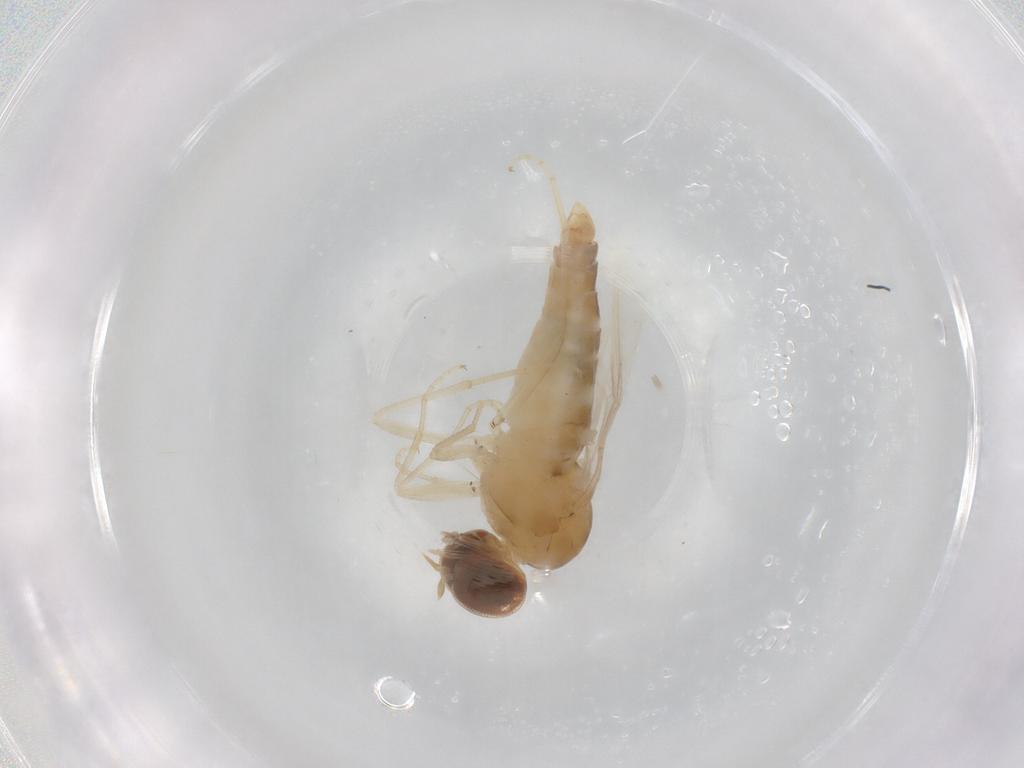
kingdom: Animalia
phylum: Arthropoda
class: Insecta
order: Diptera
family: Scenopinidae
